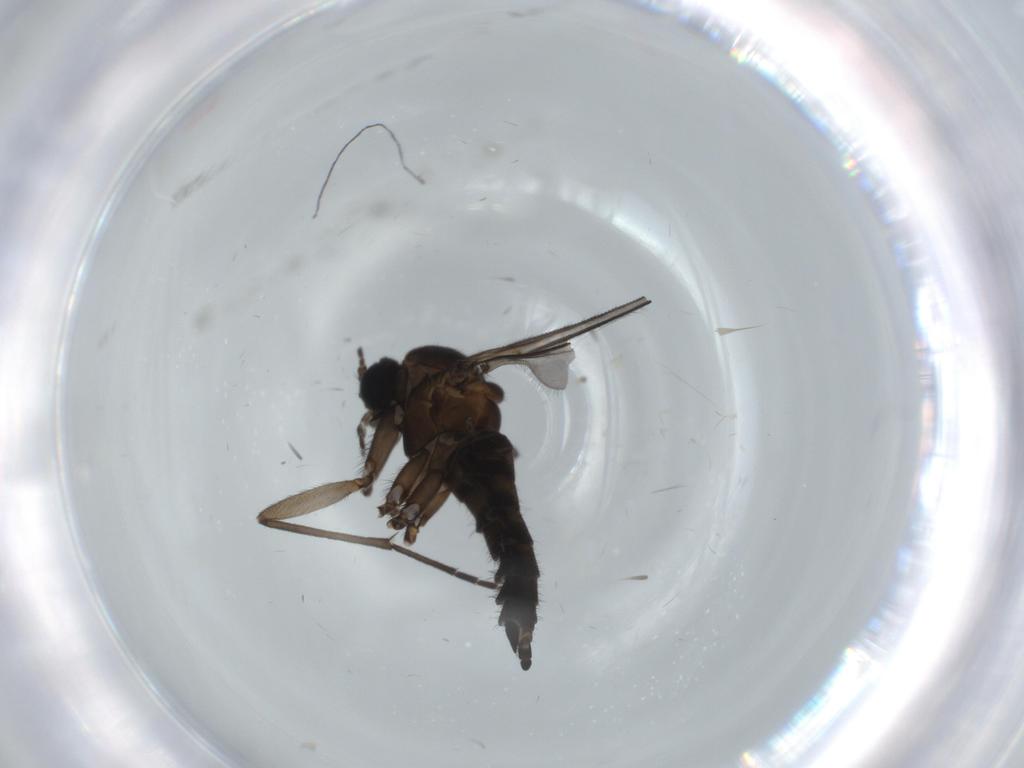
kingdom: Animalia
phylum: Arthropoda
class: Insecta
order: Diptera
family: Sciaridae
